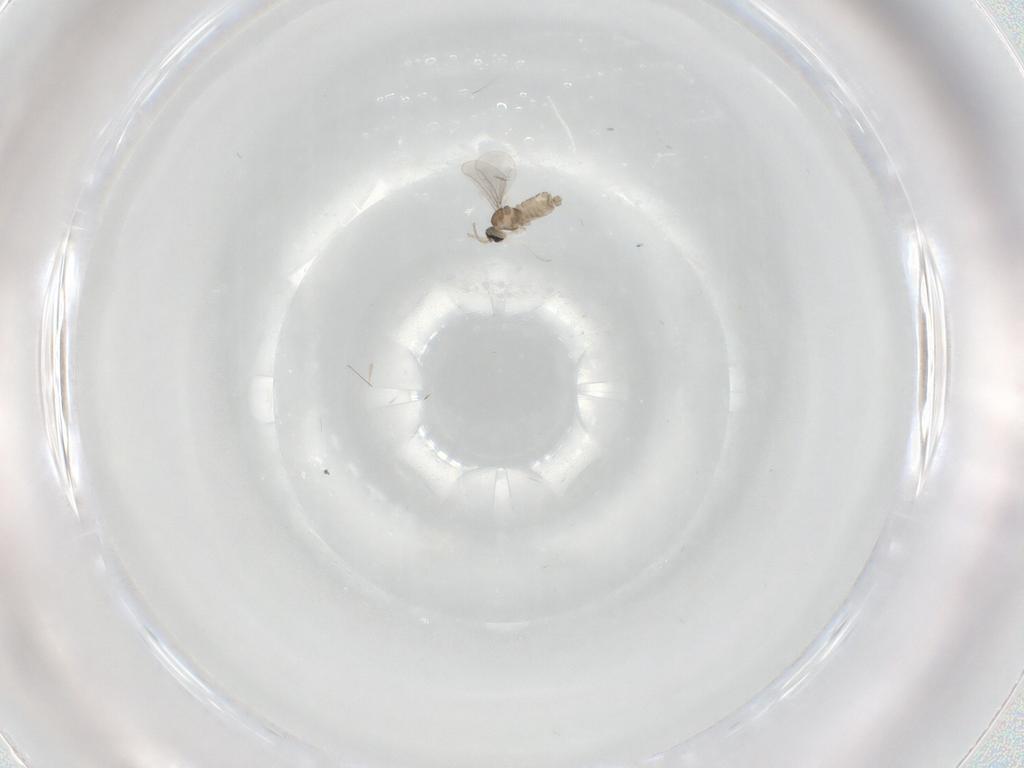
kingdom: Animalia
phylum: Arthropoda
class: Insecta
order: Diptera
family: Cecidomyiidae
